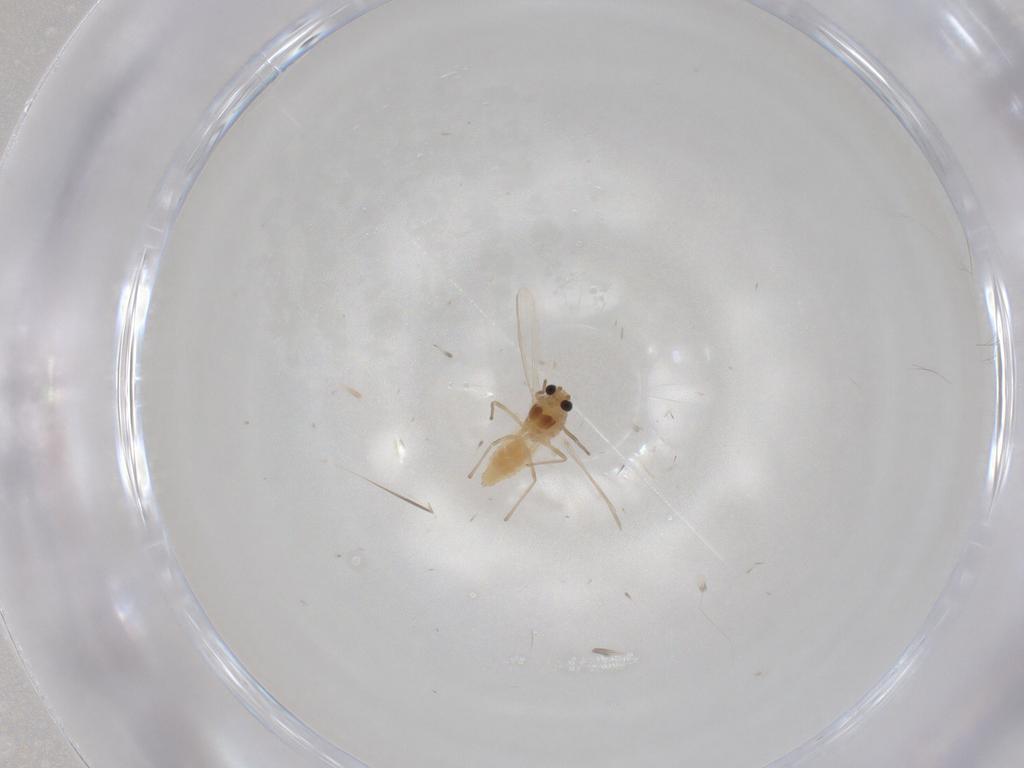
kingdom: Animalia
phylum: Arthropoda
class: Insecta
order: Diptera
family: Chironomidae
